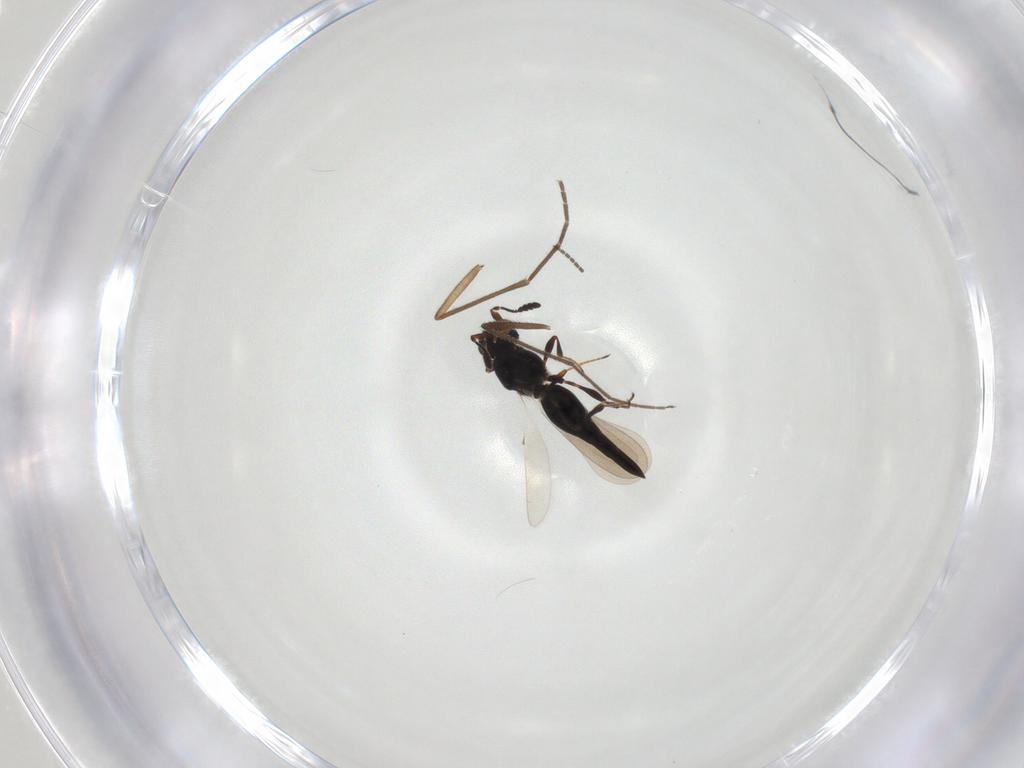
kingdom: Animalia
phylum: Arthropoda
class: Insecta
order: Hymenoptera
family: Platygastridae
